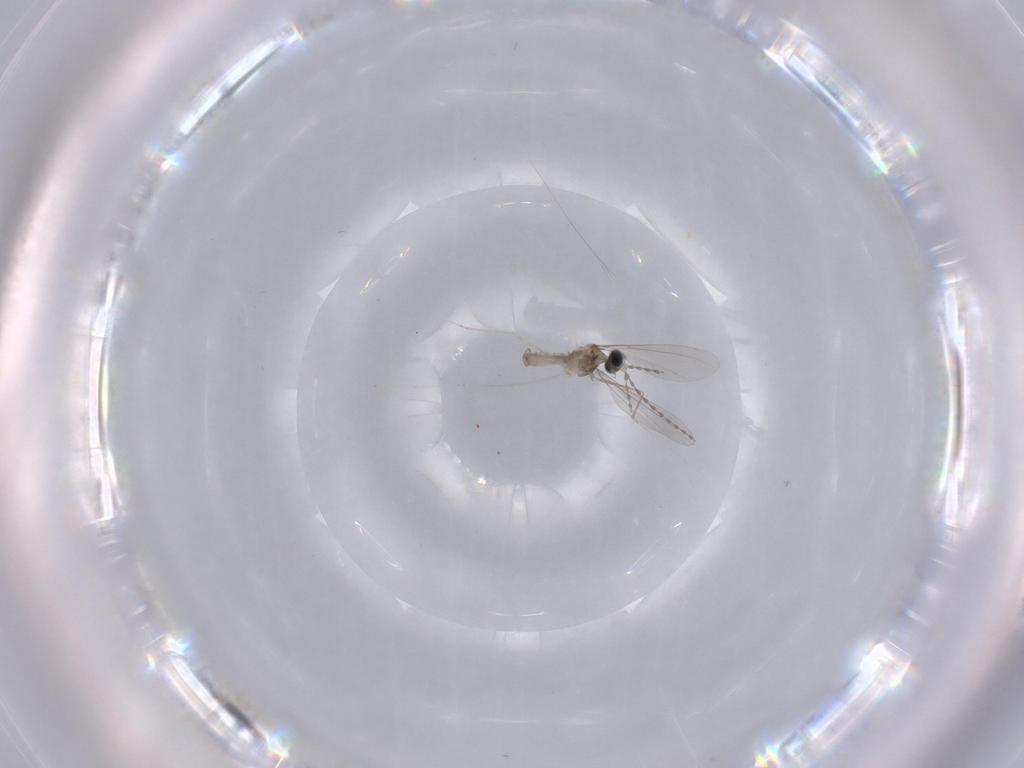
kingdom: Animalia
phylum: Arthropoda
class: Insecta
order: Diptera
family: Cecidomyiidae
